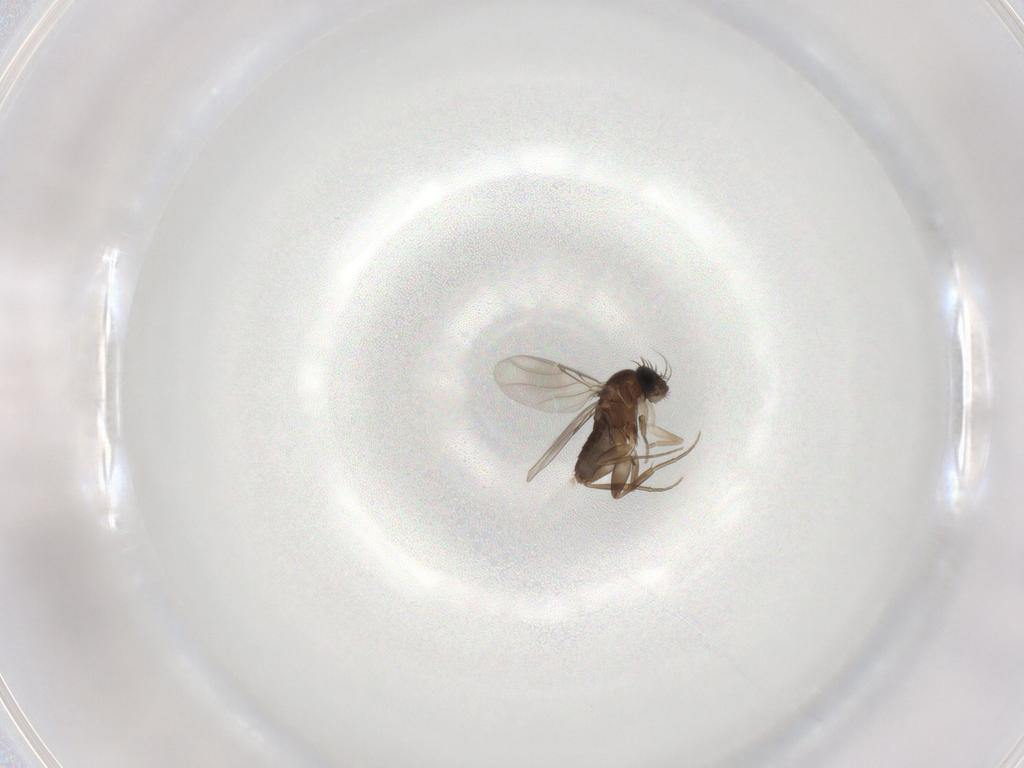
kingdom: Animalia
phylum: Arthropoda
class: Insecta
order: Diptera
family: Phoridae
